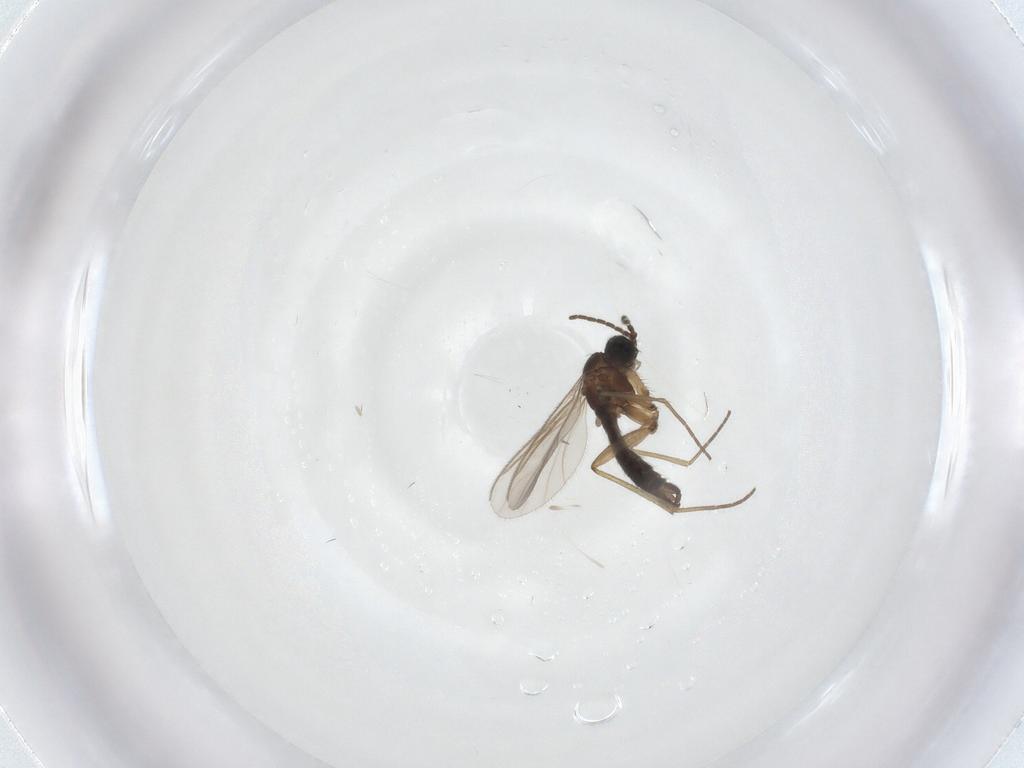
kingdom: Animalia
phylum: Arthropoda
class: Insecta
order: Diptera
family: Sciaridae
